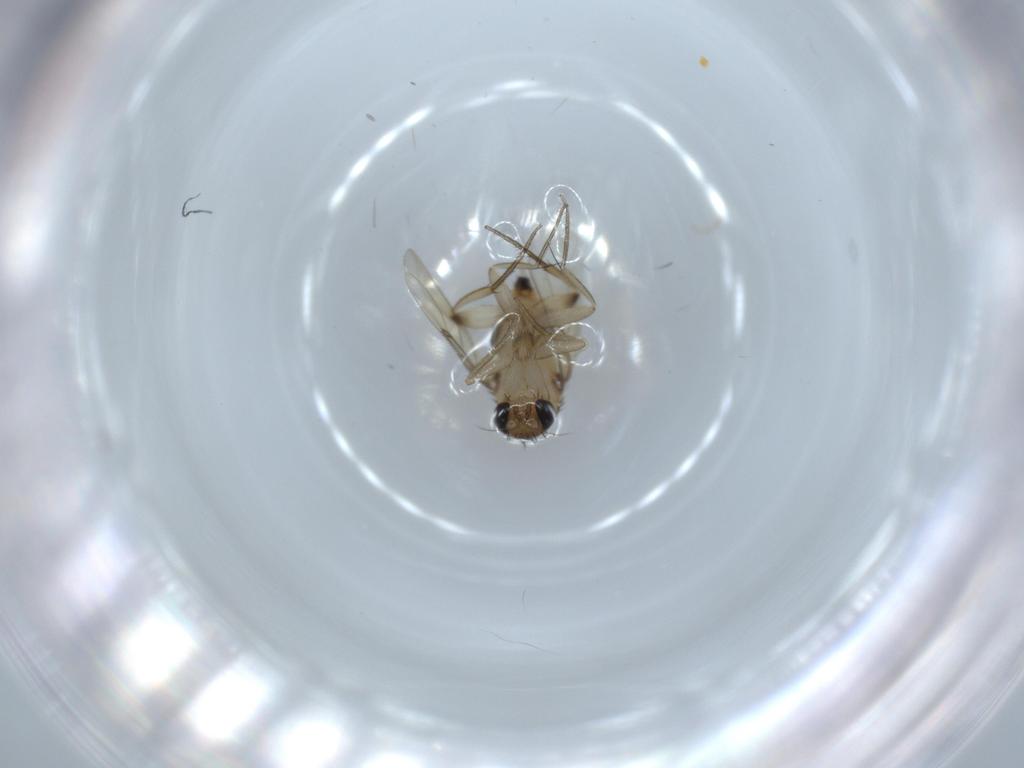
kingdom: Animalia
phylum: Arthropoda
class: Insecta
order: Diptera
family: Phoridae
